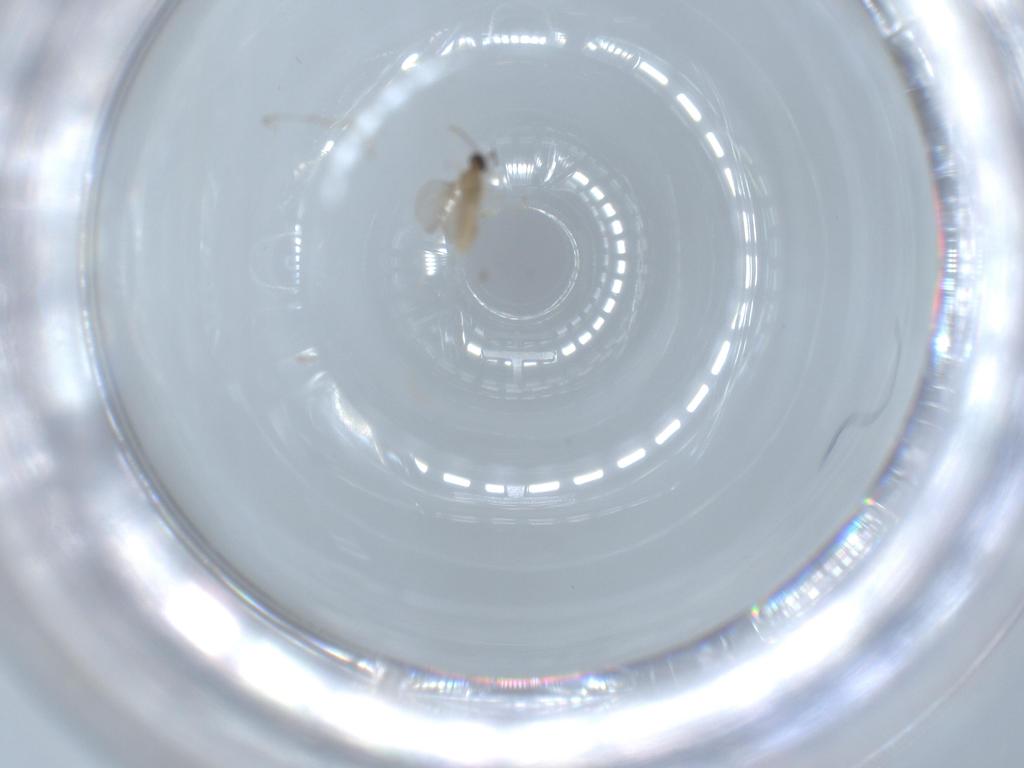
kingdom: Animalia
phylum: Arthropoda
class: Insecta
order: Diptera
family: Cecidomyiidae
